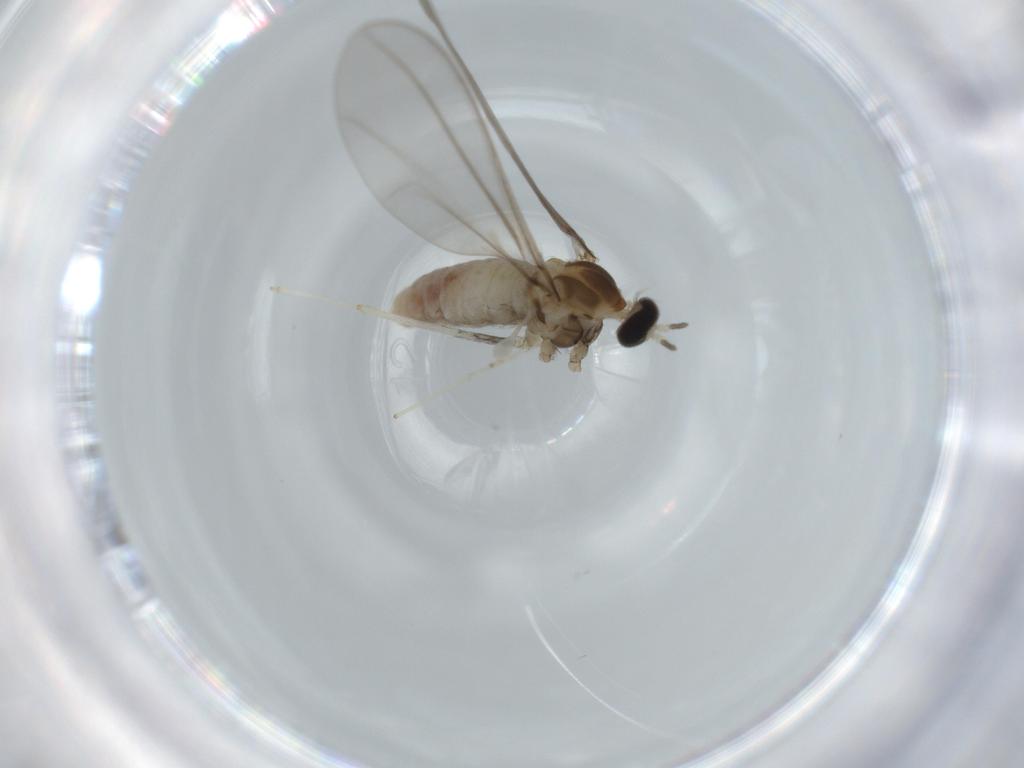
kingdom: Animalia
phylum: Arthropoda
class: Insecta
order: Diptera
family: Cecidomyiidae
